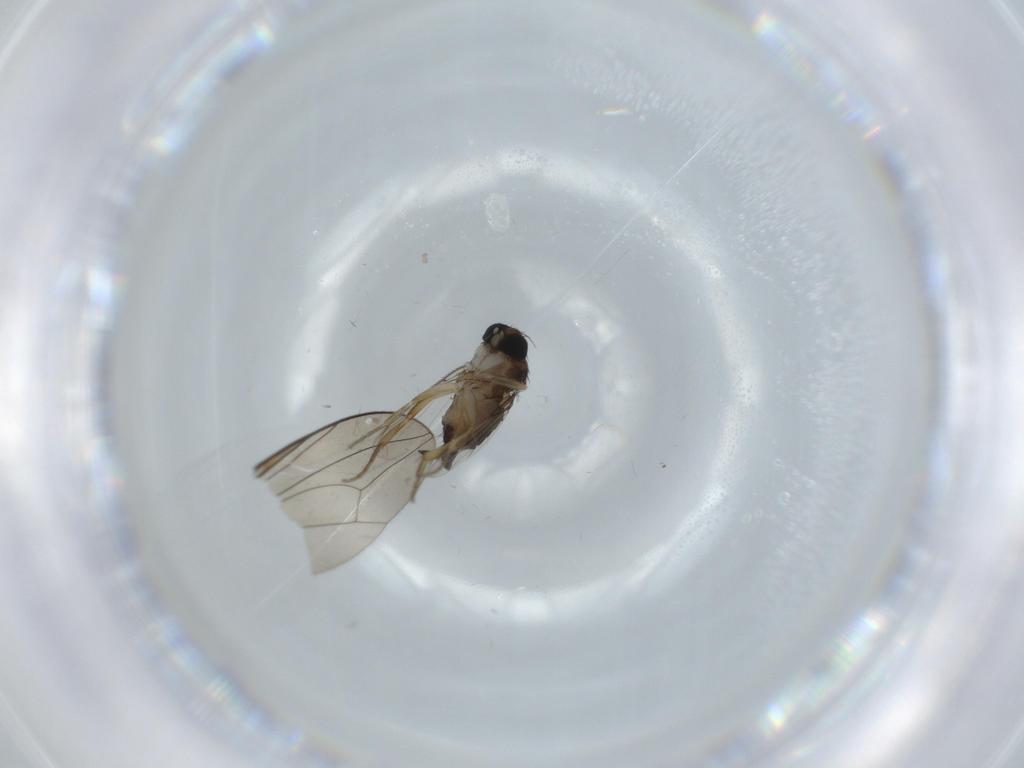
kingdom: Animalia
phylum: Arthropoda
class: Insecta
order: Diptera
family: Phoridae
